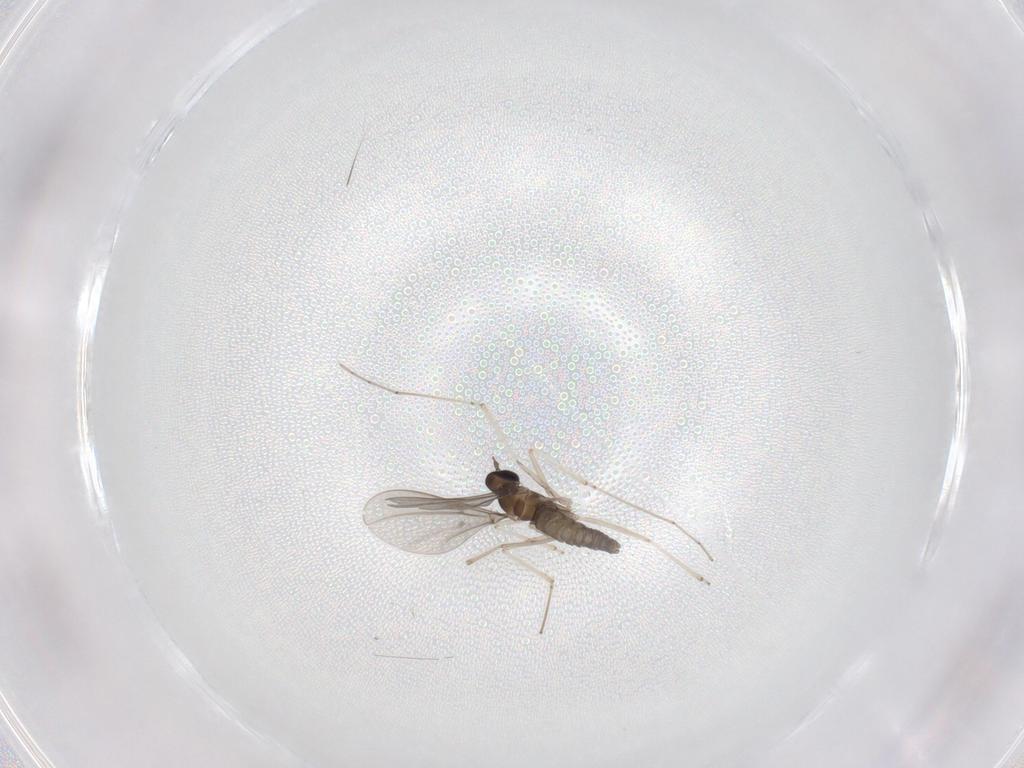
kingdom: Animalia
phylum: Arthropoda
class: Insecta
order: Diptera
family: Cecidomyiidae
